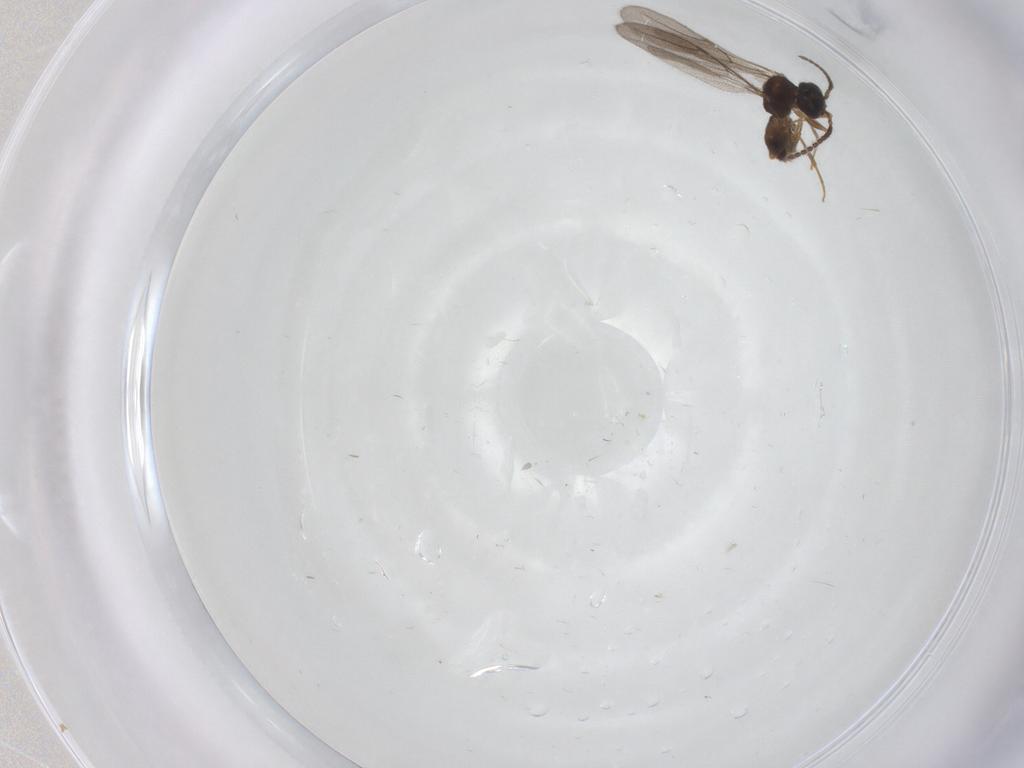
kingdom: Animalia
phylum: Arthropoda
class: Insecta
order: Hymenoptera
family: Bethylidae
